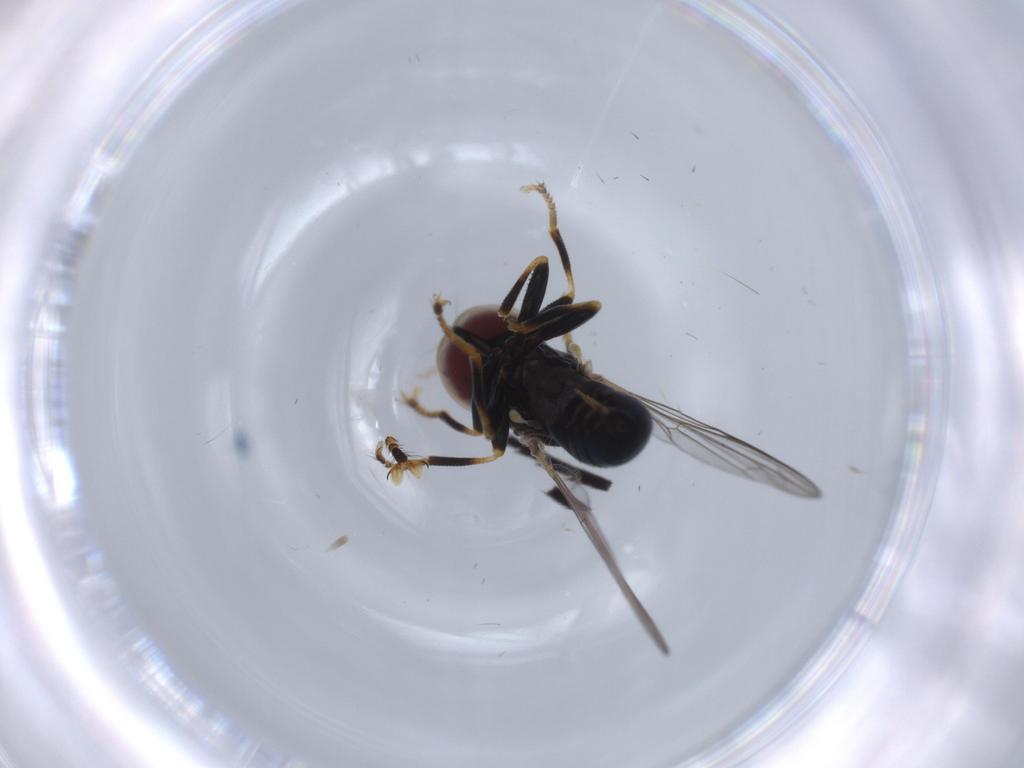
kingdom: Animalia
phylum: Arthropoda
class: Insecta
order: Diptera
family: Pipunculidae
